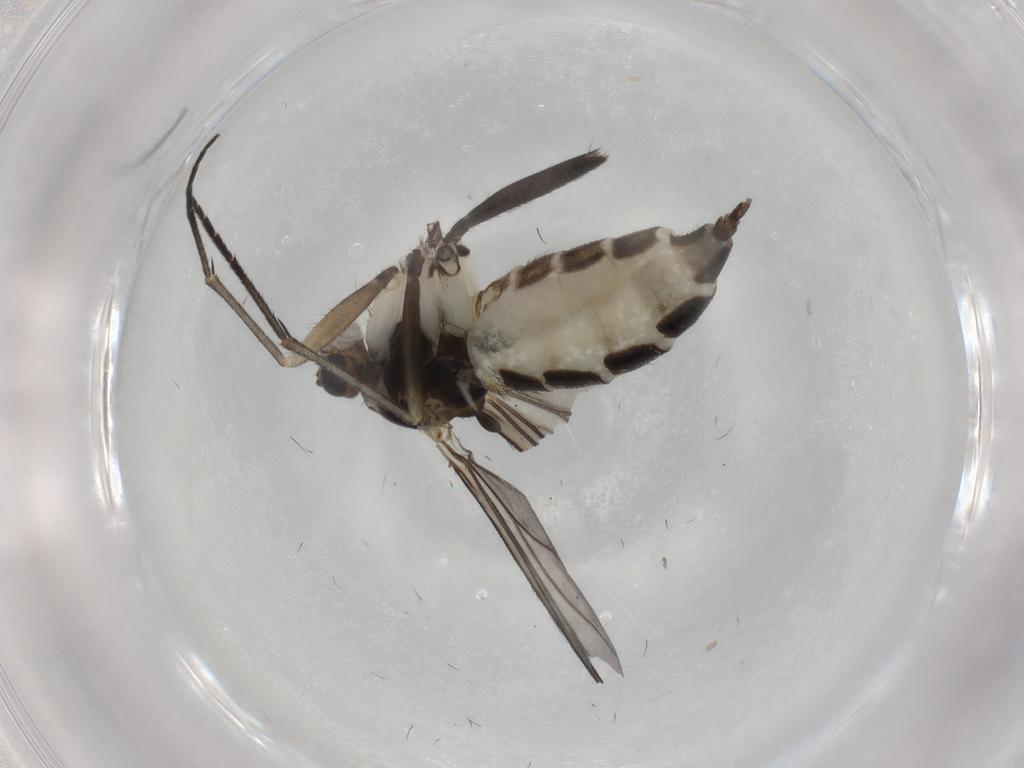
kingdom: Animalia
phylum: Arthropoda
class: Insecta
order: Diptera
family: Sciaridae
